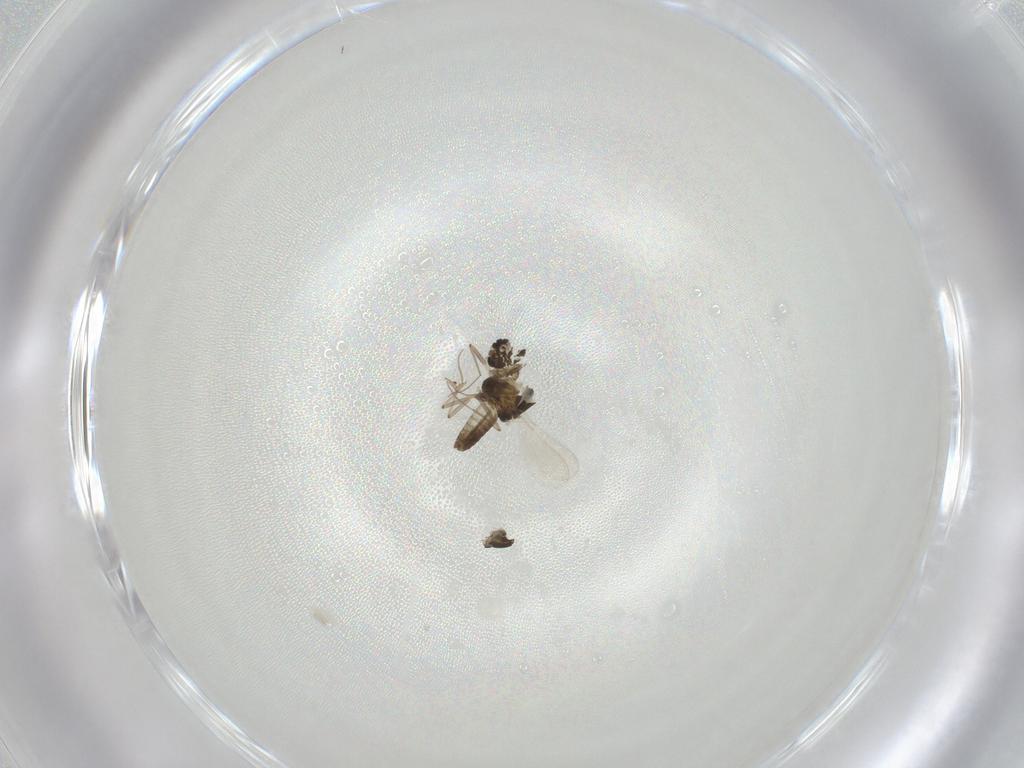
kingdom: Animalia
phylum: Arthropoda
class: Insecta
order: Diptera
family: Chironomidae
